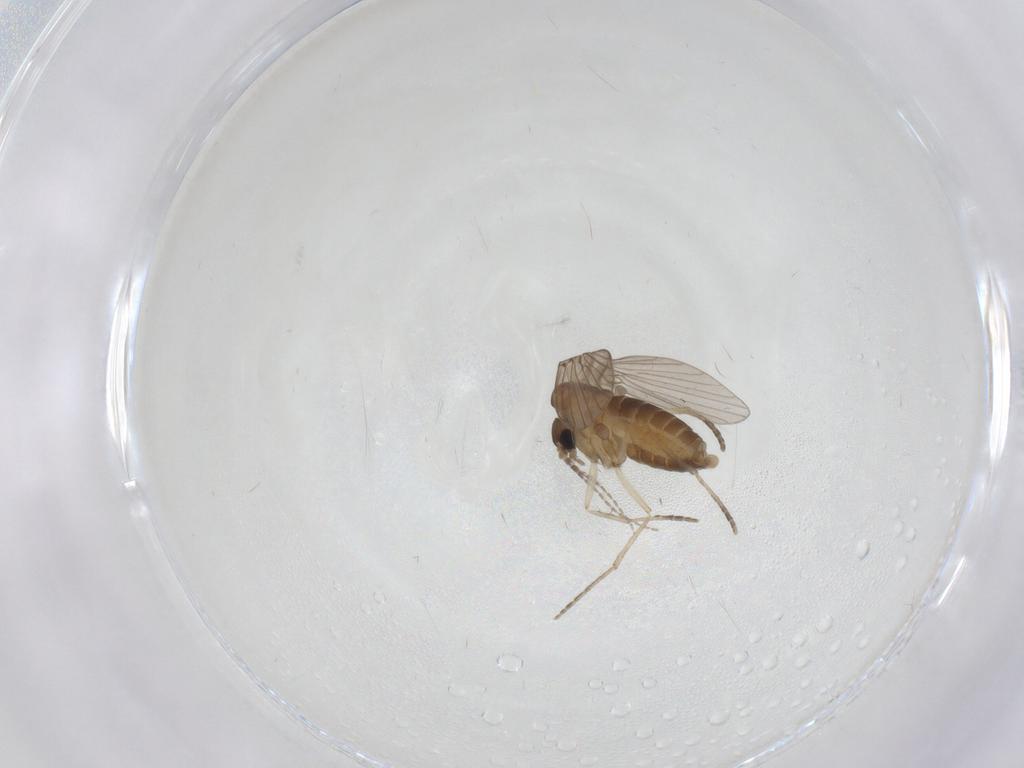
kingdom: Animalia
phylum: Arthropoda
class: Insecta
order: Diptera
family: Cecidomyiidae
